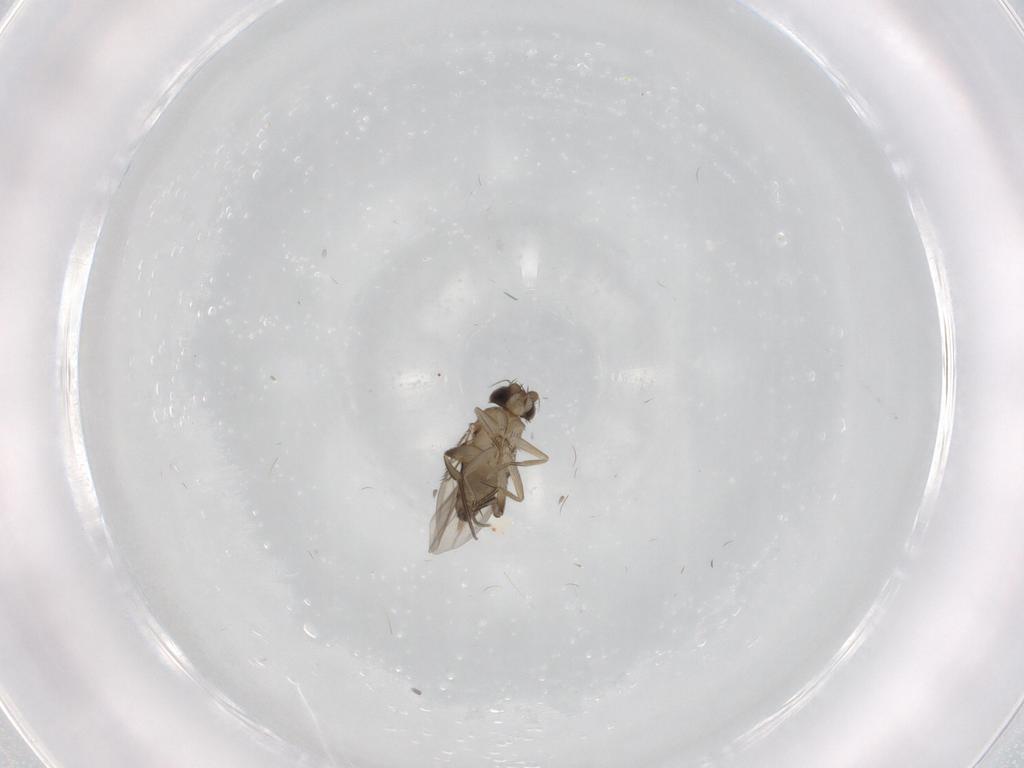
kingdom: Animalia
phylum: Arthropoda
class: Insecta
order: Diptera
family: Phoridae
